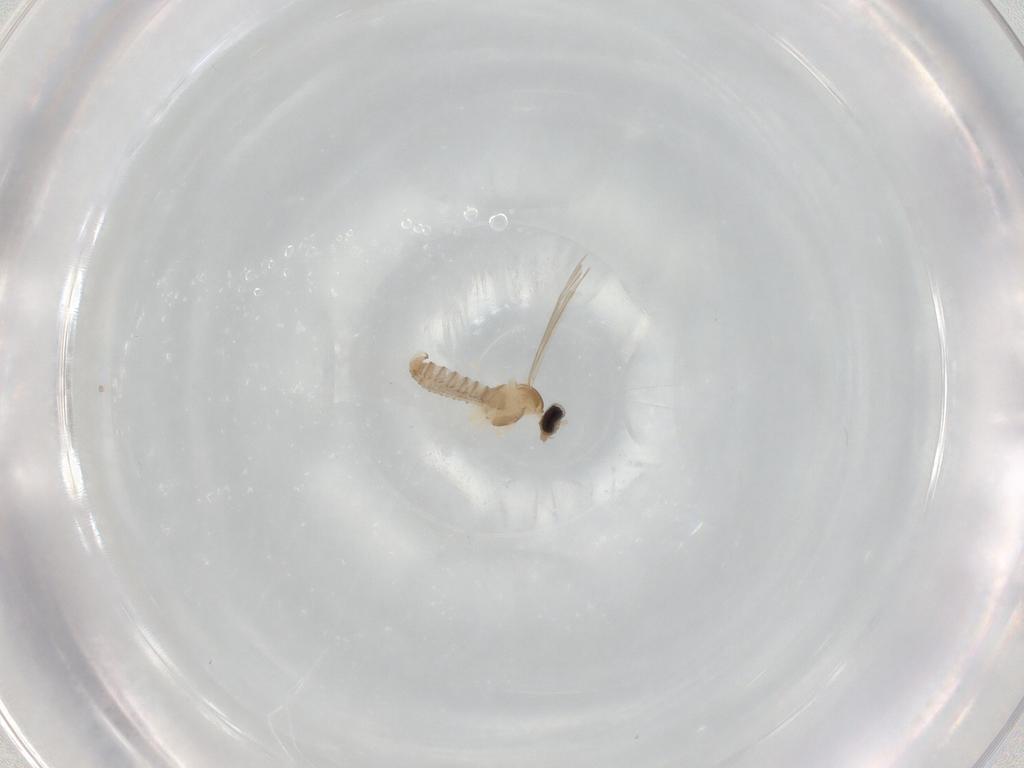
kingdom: Animalia
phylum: Arthropoda
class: Insecta
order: Diptera
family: Cecidomyiidae
